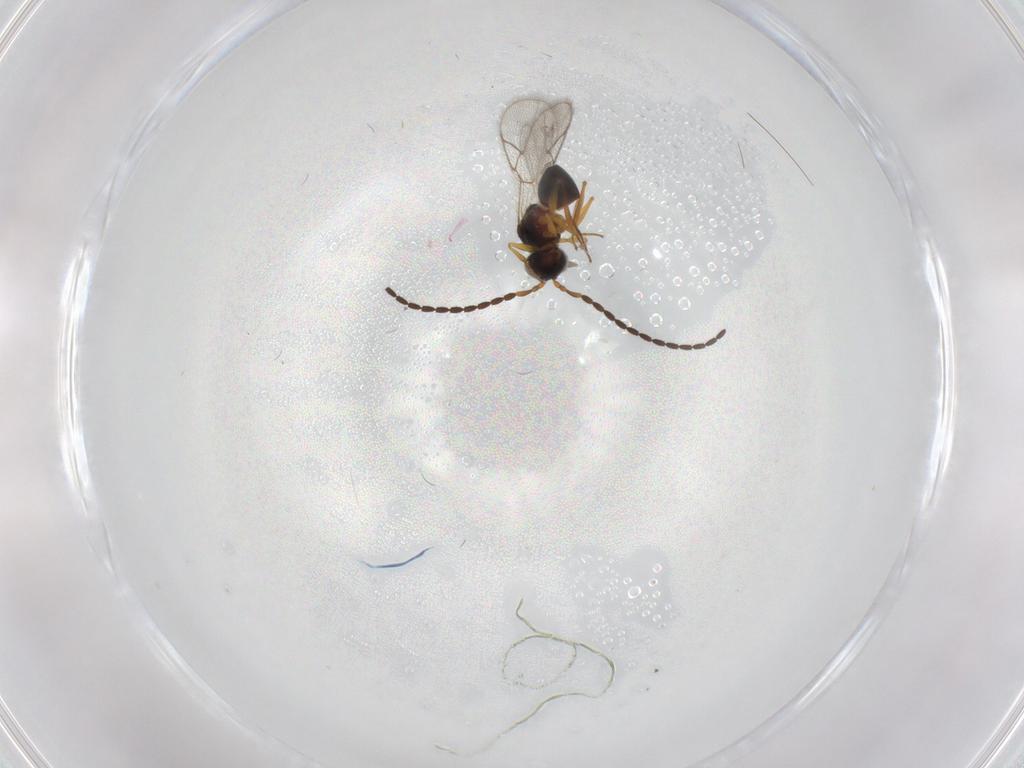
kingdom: Animalia
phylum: Arthropoda
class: Insecta
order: Hymenoptera
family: Figitidae
